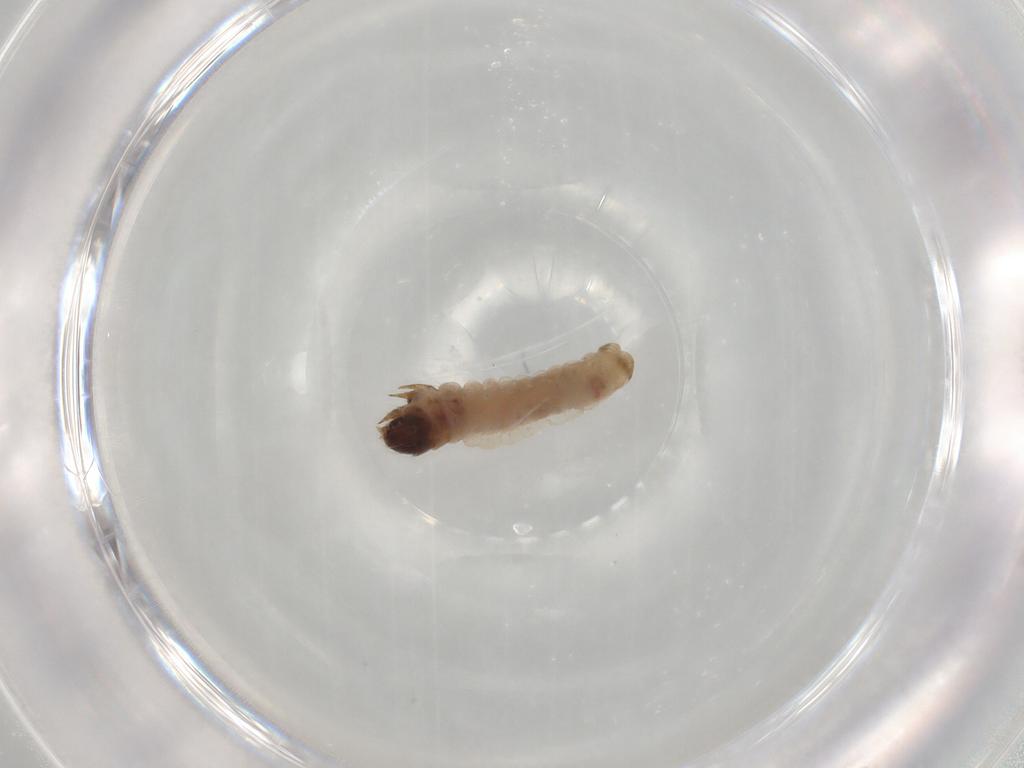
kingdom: Animalia
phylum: Arthropoda
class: Insecta
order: Lepidoptera
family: Psychidae
